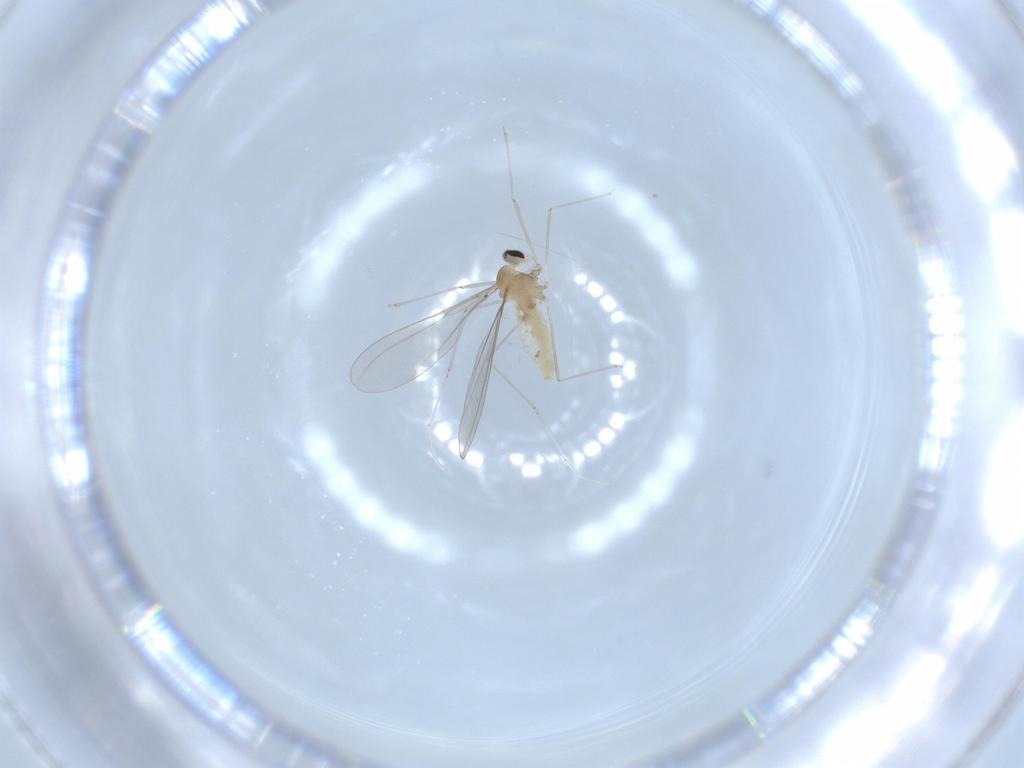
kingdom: Animalia
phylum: Arthropoda
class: Insecta
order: Diptera
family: Cecidomyiidae
